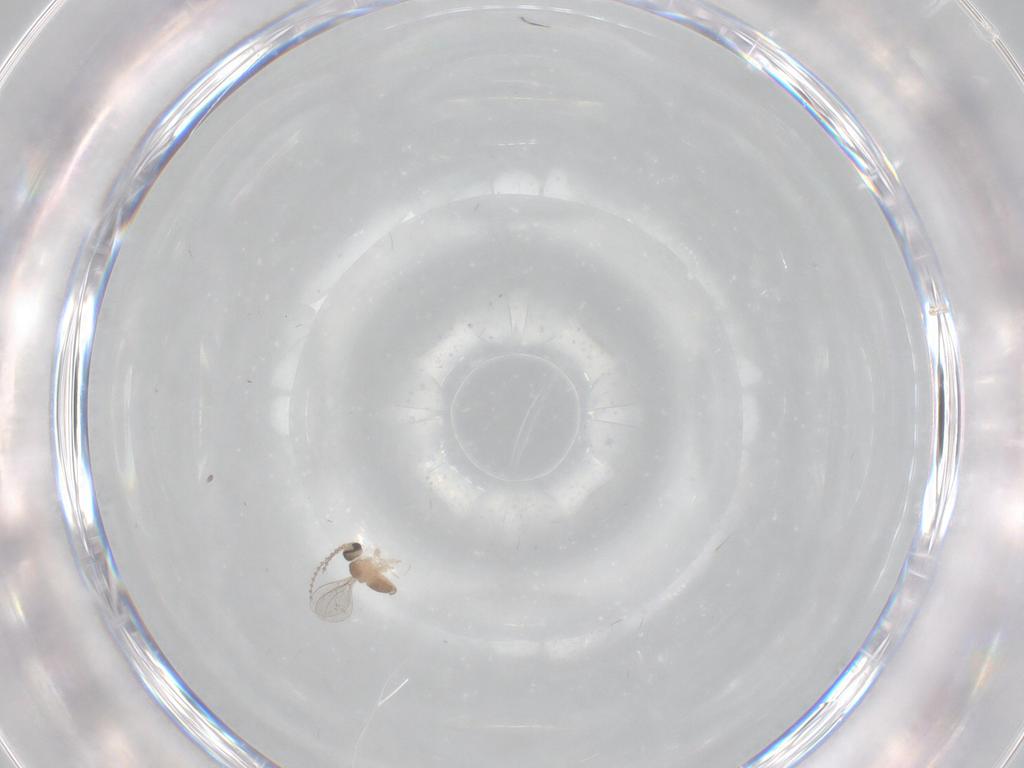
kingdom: Animalia
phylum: Arthropoda
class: Insecta
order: Diptera
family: Cecidomyiidae
